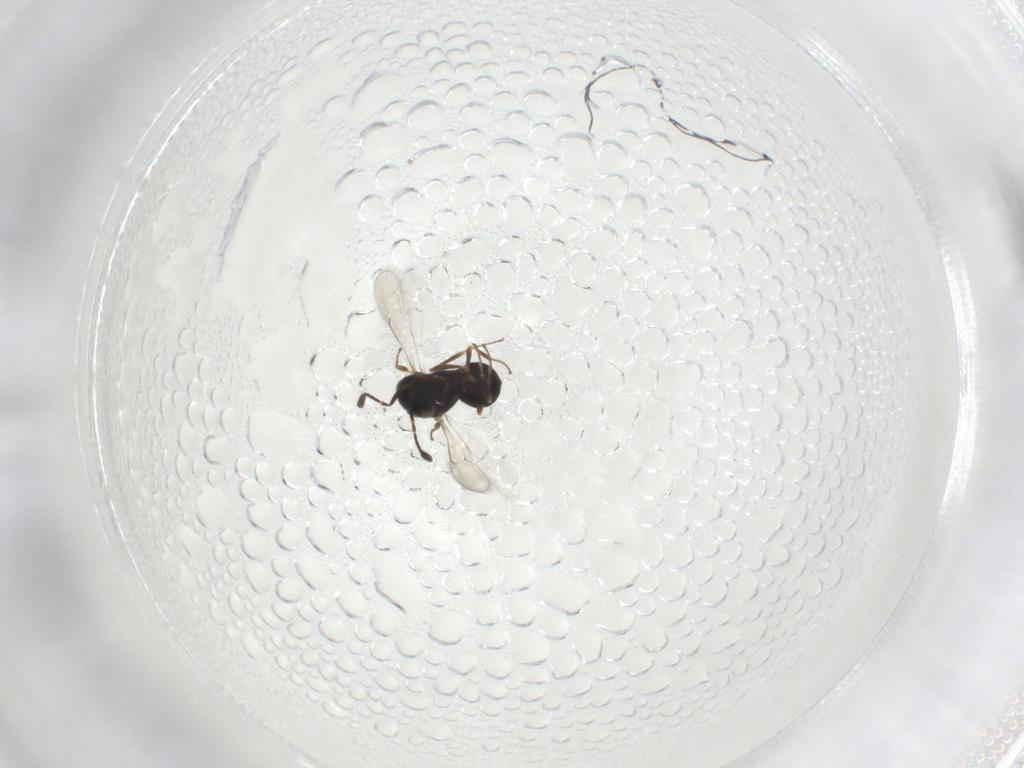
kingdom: Animalia
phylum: Arthropoda
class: Insecta
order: Hymenoptera
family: Scelionidae
